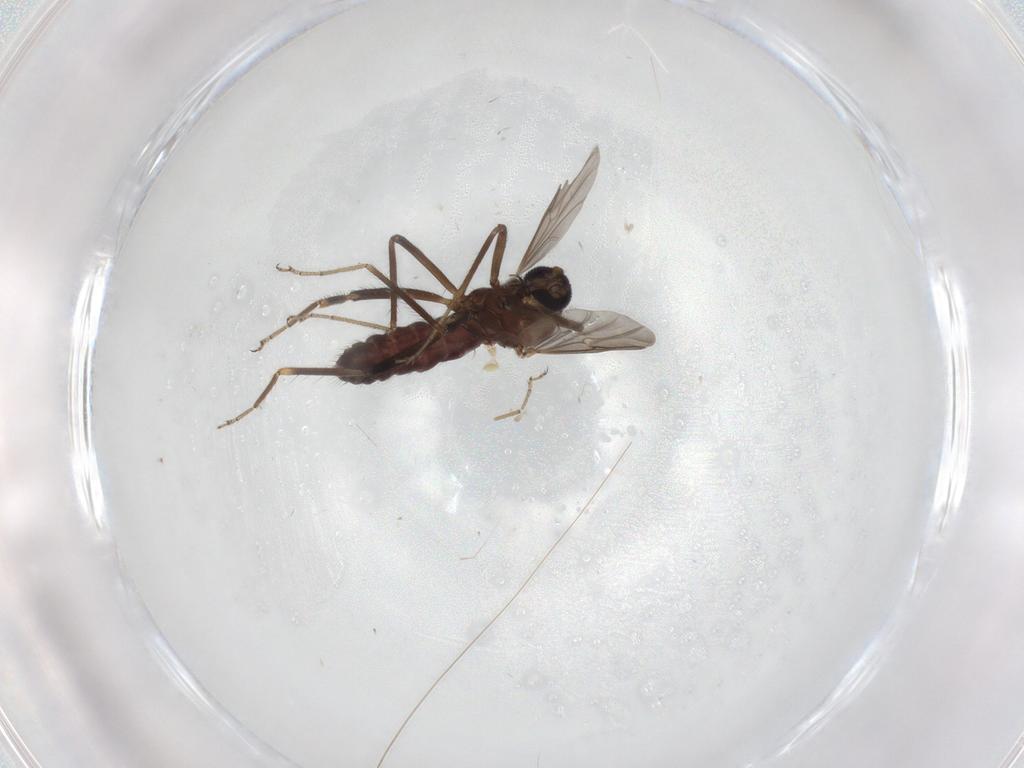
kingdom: Animalia
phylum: Arthropoda
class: Insecta
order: Diptera
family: Ceratopogonidae
